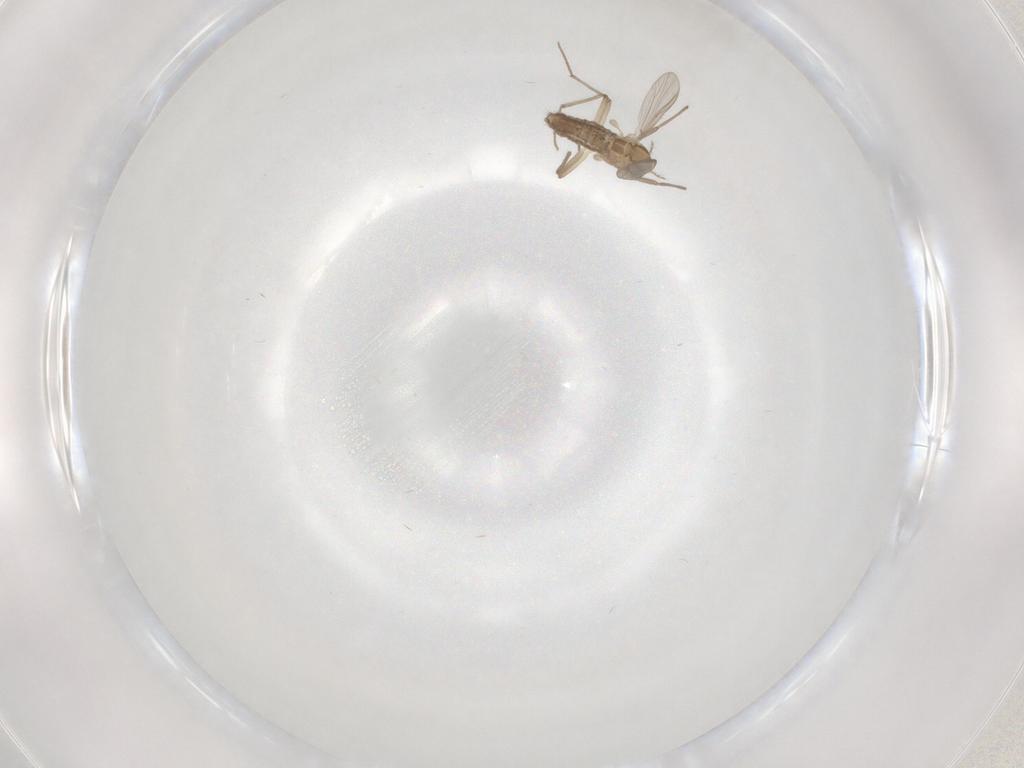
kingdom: Animalia
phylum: Arthropoda
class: Insecta
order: Diptera
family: Chironomidae
